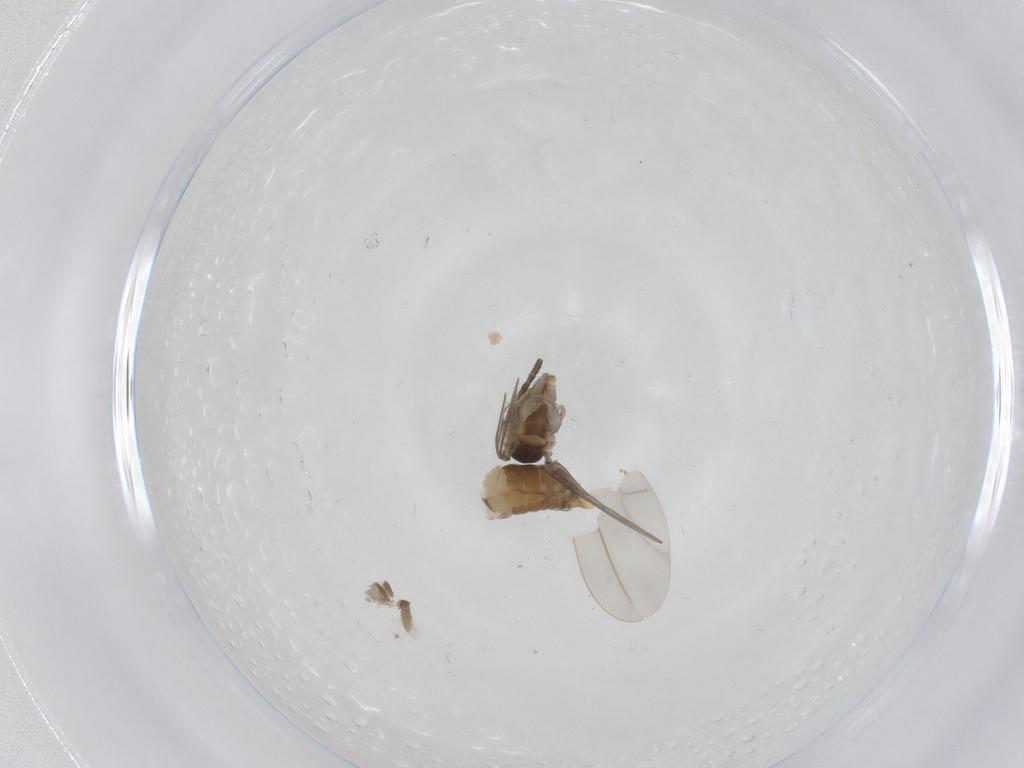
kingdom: Animalia
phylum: Arthropoda
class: Insecta
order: Diptera
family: Psychodidae
